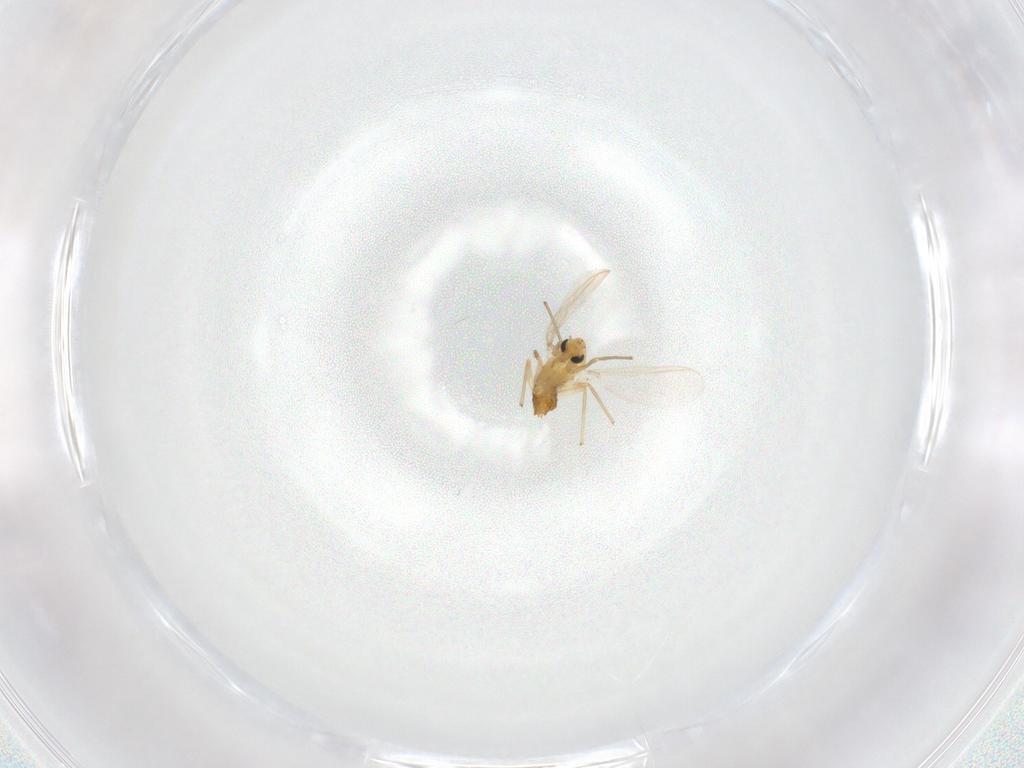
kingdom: Animalia
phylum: Arthropoda
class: Insecta
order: Diptera
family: Chironomidae
